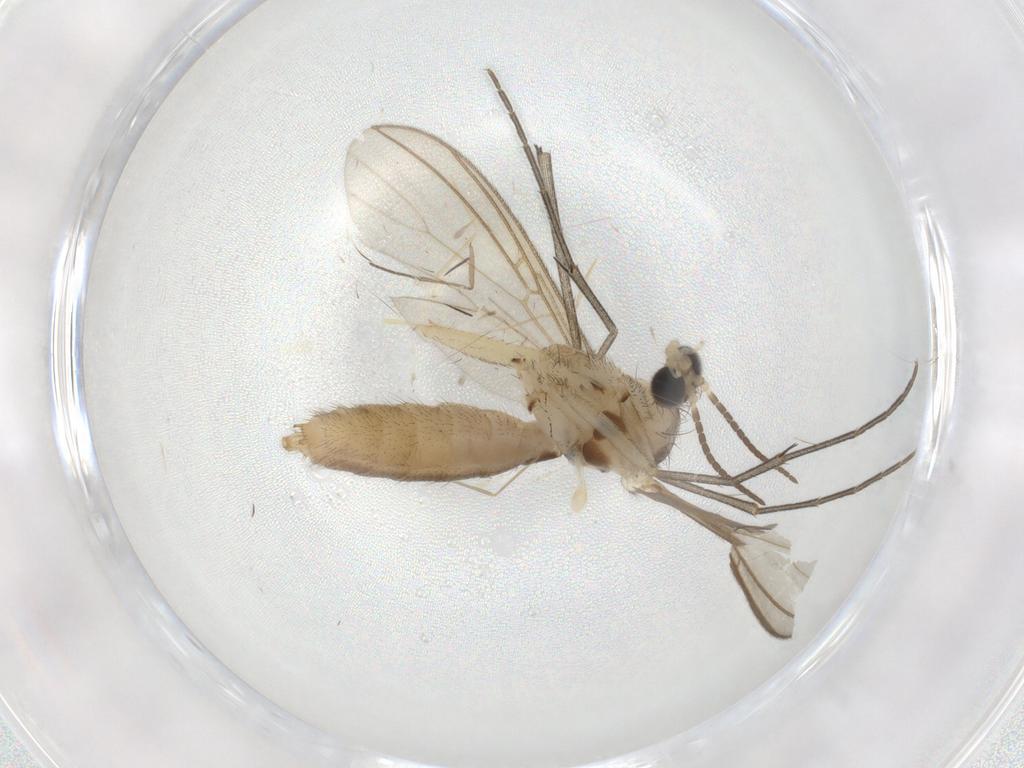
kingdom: Animalia
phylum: Arthropoda
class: Insecta
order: Diptera
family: Mycetophilidae
